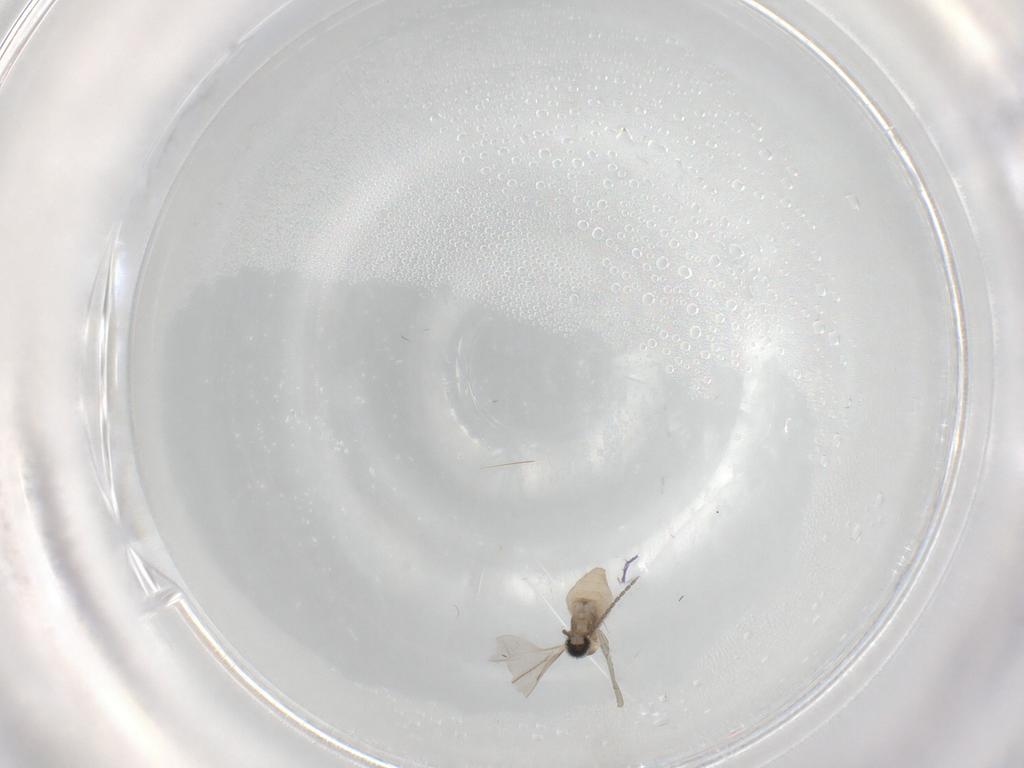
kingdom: Animalia
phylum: Arthropoda
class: Insecta
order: Diptera
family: Cecidomyiidae
